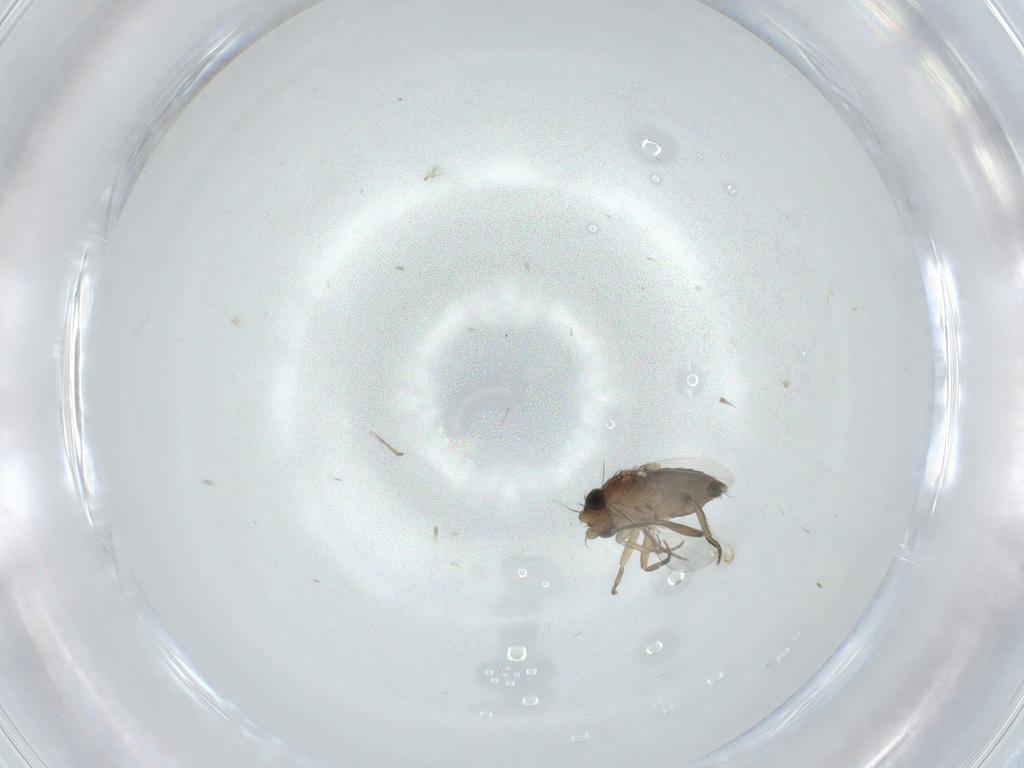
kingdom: Animalia
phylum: Arthropoda
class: Insecta
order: Diptera
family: Phoridae
